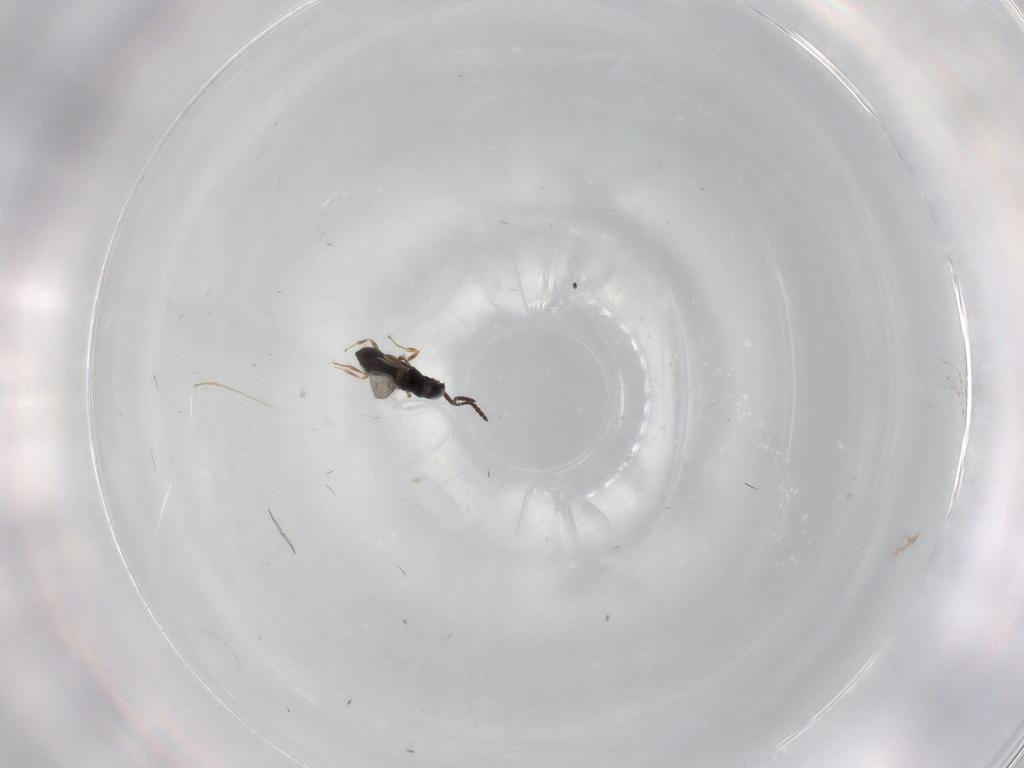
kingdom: Animalia
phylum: Arthropoda
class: Insecta
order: Hymenoptera
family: Scelionidae
